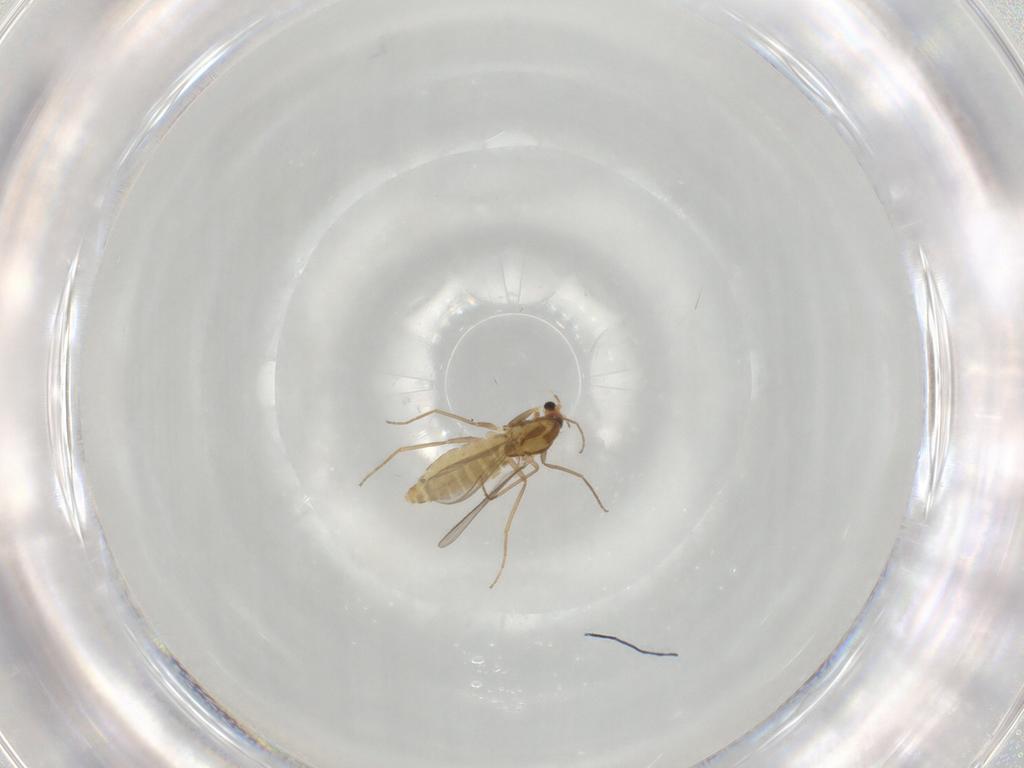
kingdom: Animalia
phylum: Arthropoda
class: Insecta
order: Diptera
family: Chironomidae
